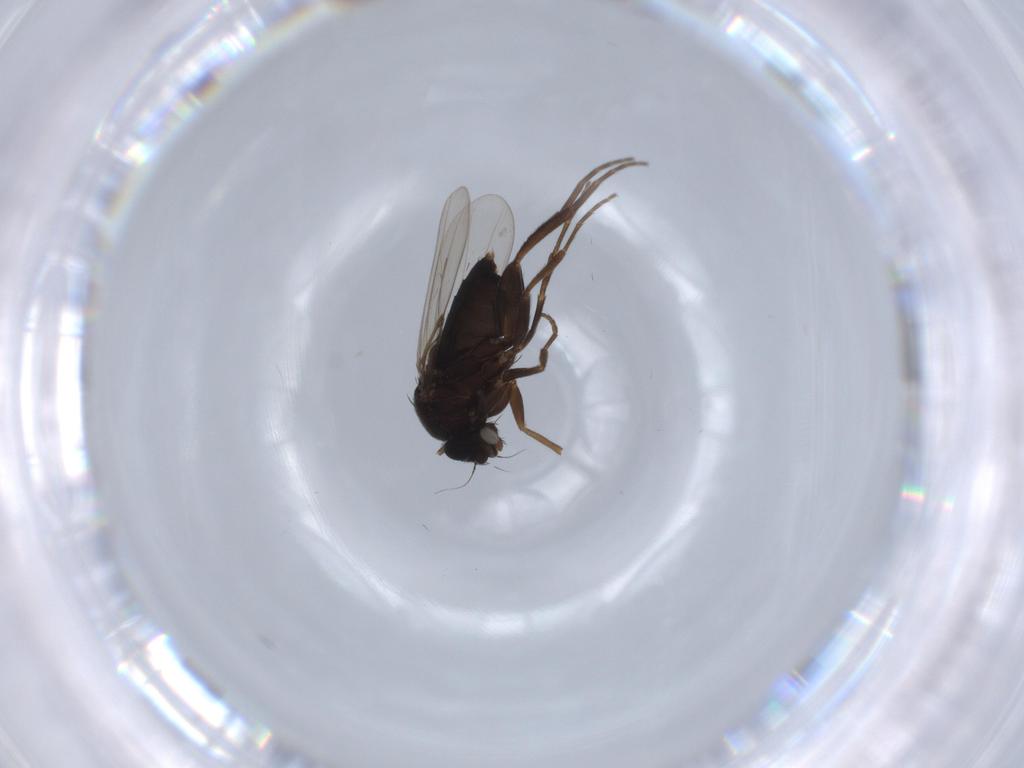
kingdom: Animalia
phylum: Arthropoda
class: Insecta
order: Diptera
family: Phoridae
